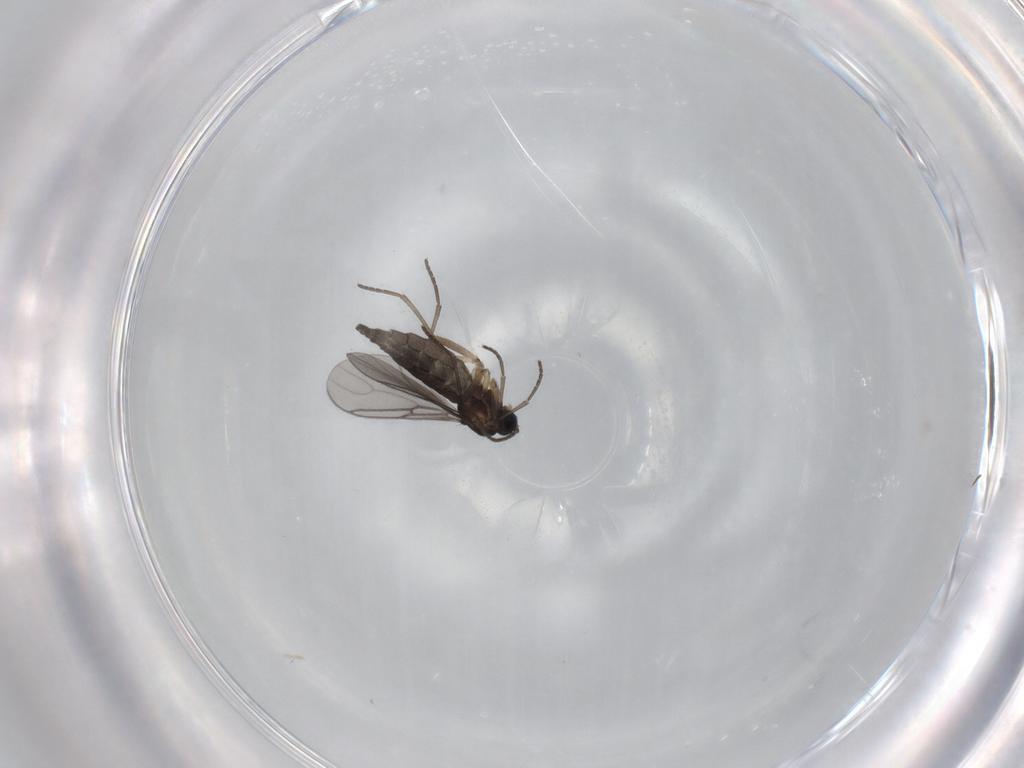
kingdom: Animalia
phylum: Arthropoda
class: Insecta
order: Diptera
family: Sciaridae
